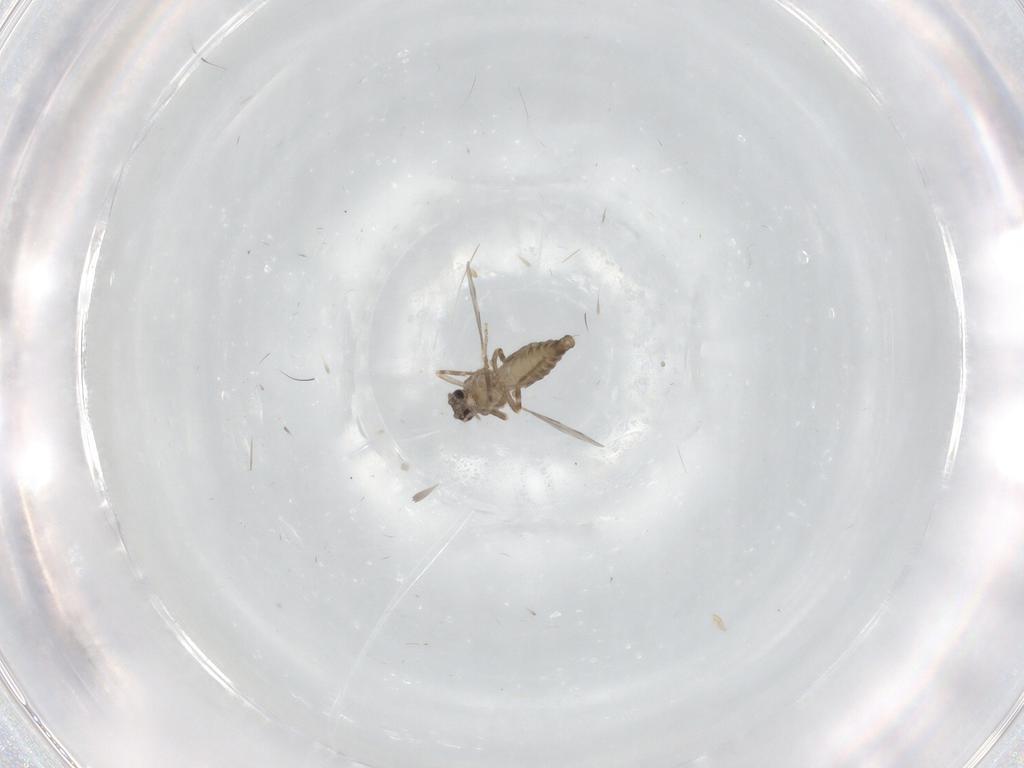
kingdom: Animalia
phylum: Arthropoda
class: Insecta
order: Diptera
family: Ceratopogonidae
